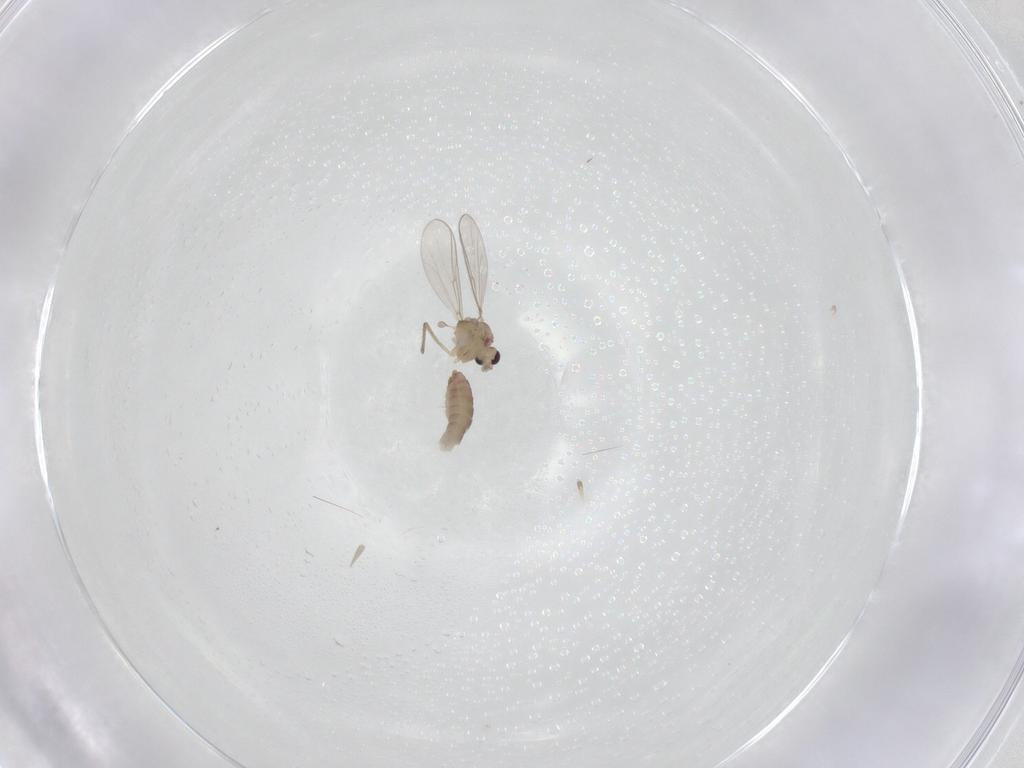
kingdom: Animalia
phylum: Arthropoda
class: Insecta
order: Diptera
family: Chironomidae
